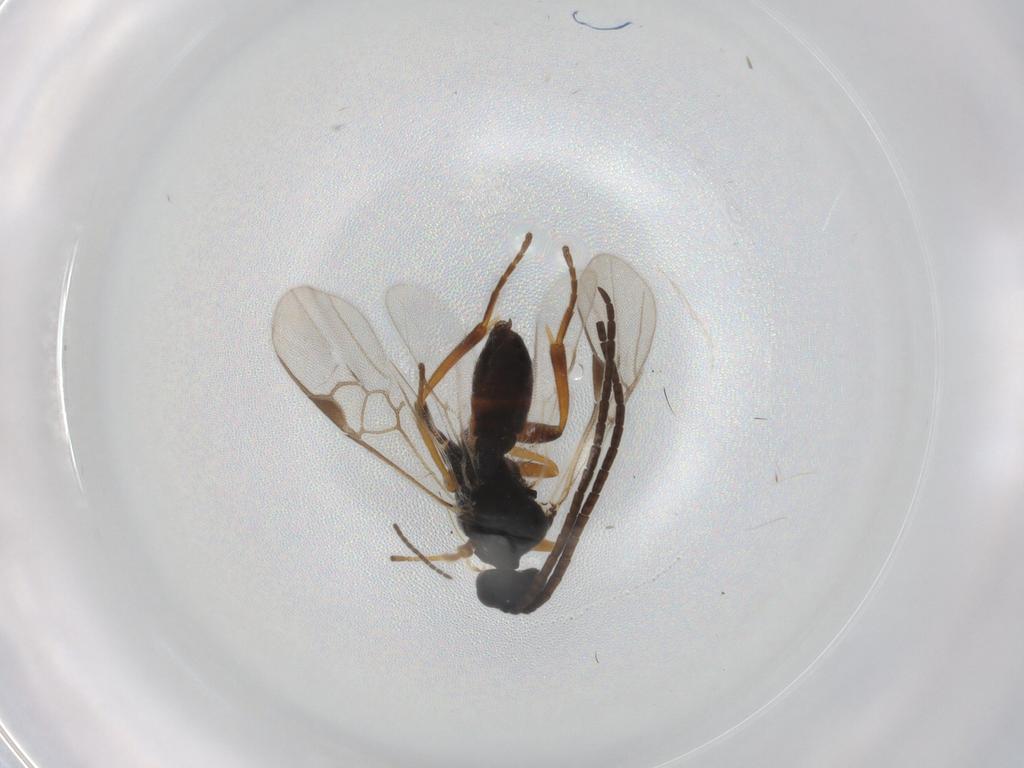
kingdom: Animalia
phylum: Arthropoda
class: Insecta
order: Hymenoptera
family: Braconidae
